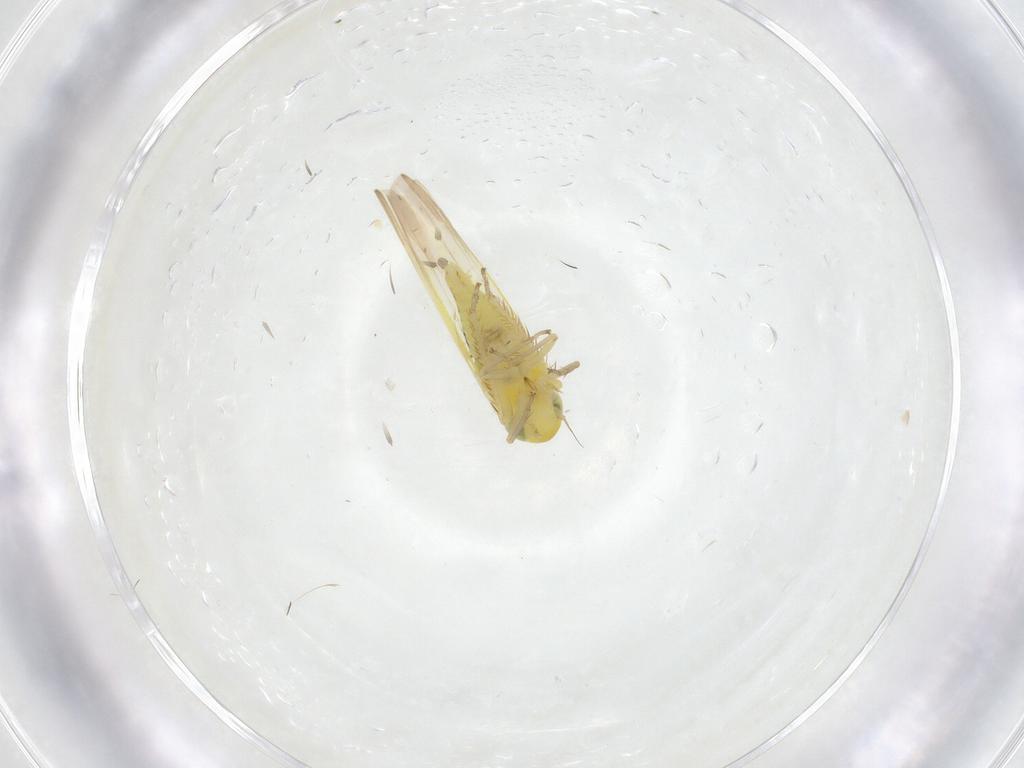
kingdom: Animalia
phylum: Arthropoda
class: Insecta
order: Hemiptera
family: Cicadellidae
